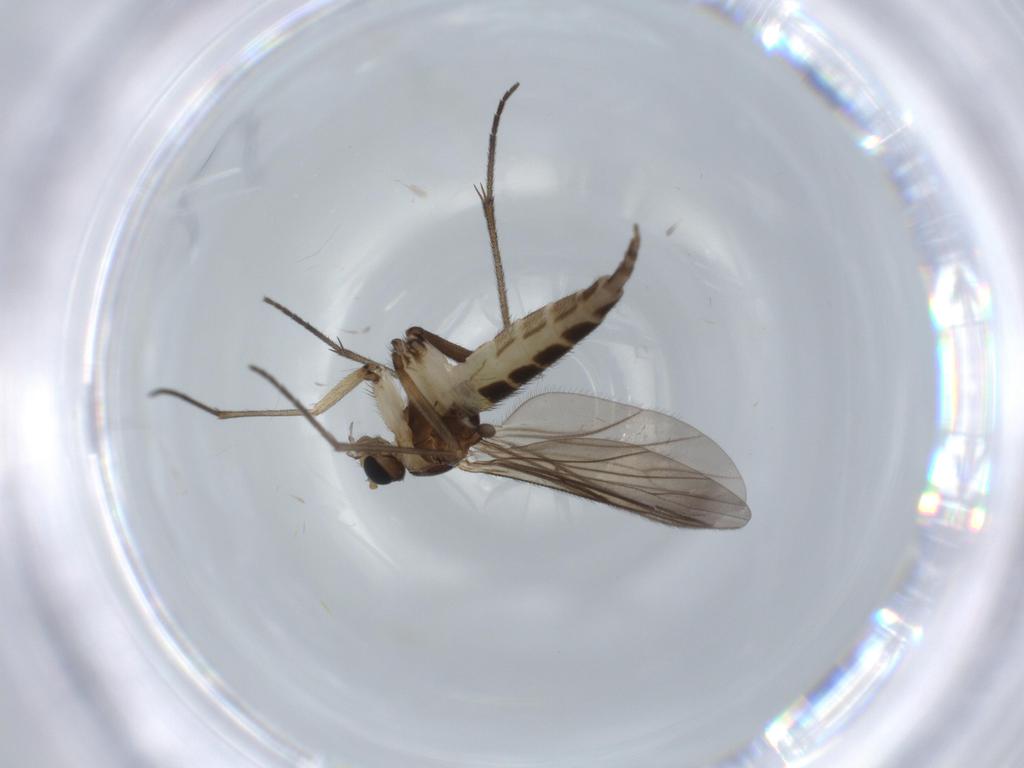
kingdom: Animalia
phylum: Arthropoda
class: Insecta
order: Diptera
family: Sciaridae
